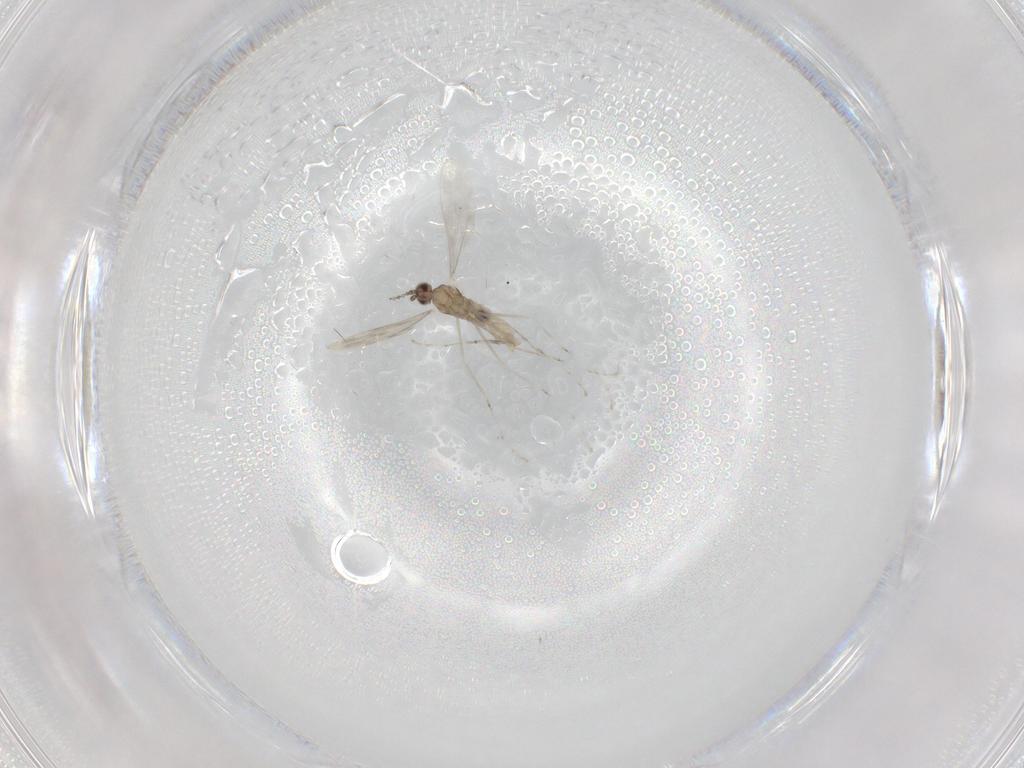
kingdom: Animalia
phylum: Arthropoda
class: Insecta
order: Diptera
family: Cecidomyiidae
